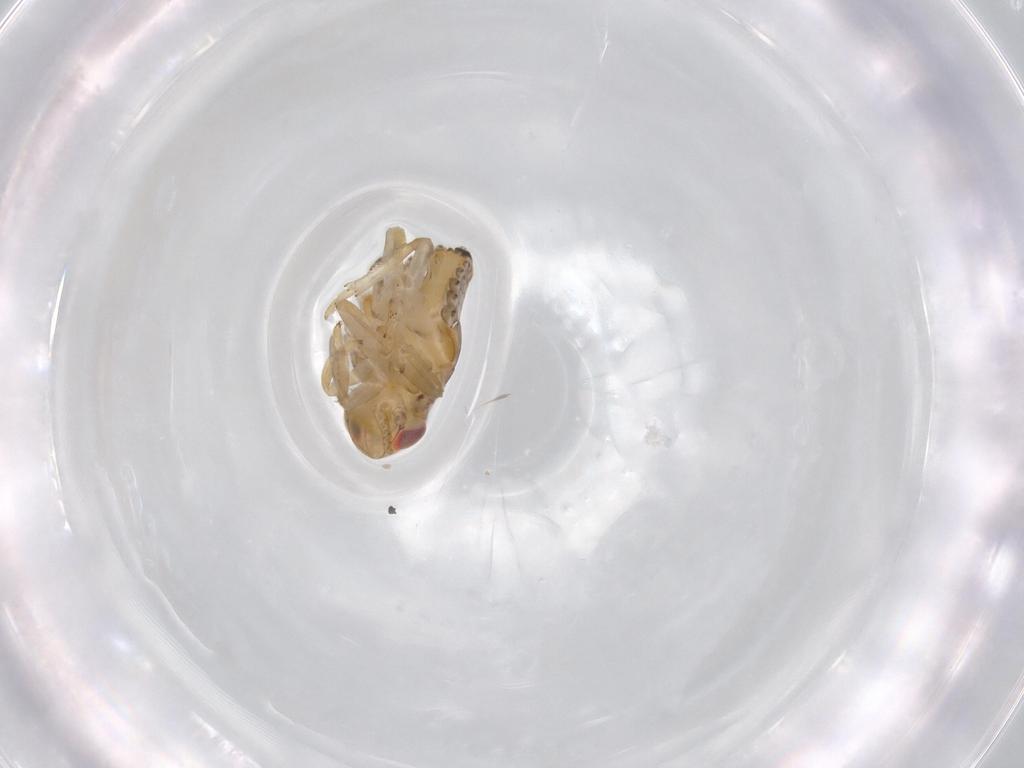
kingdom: Animalia
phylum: Arthropoda
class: Insecta
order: Hemiptera
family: Issidae
